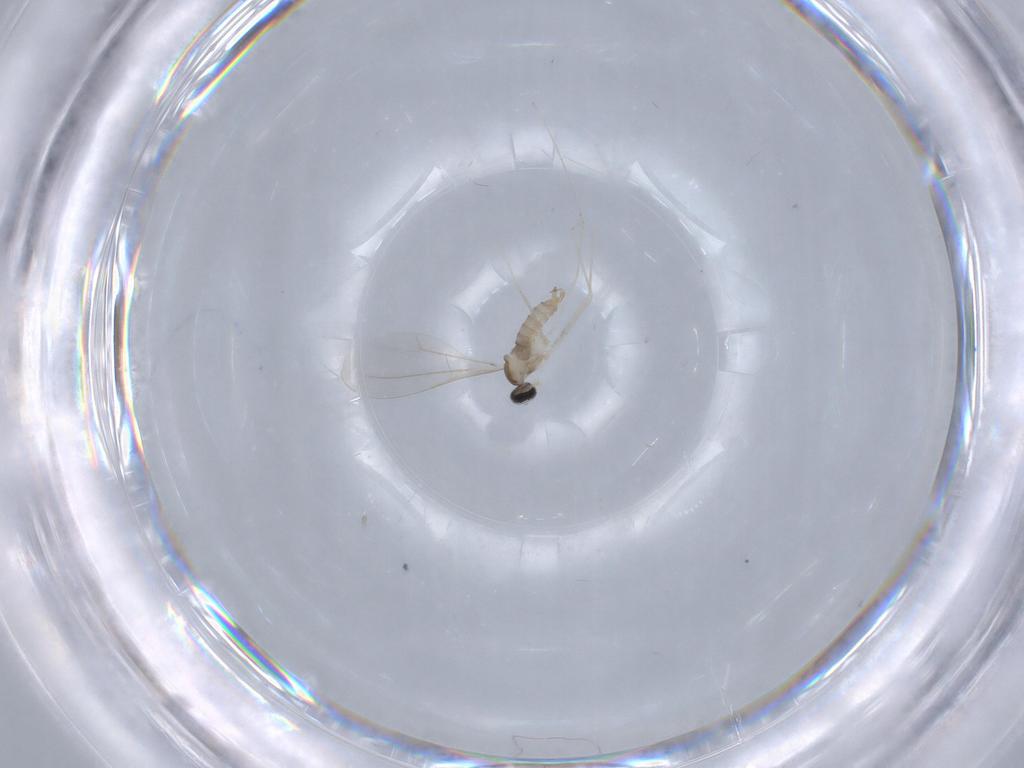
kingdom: Animalia
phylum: Arthropoda
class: Insecta
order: Diptera
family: Cecidomyiidae
